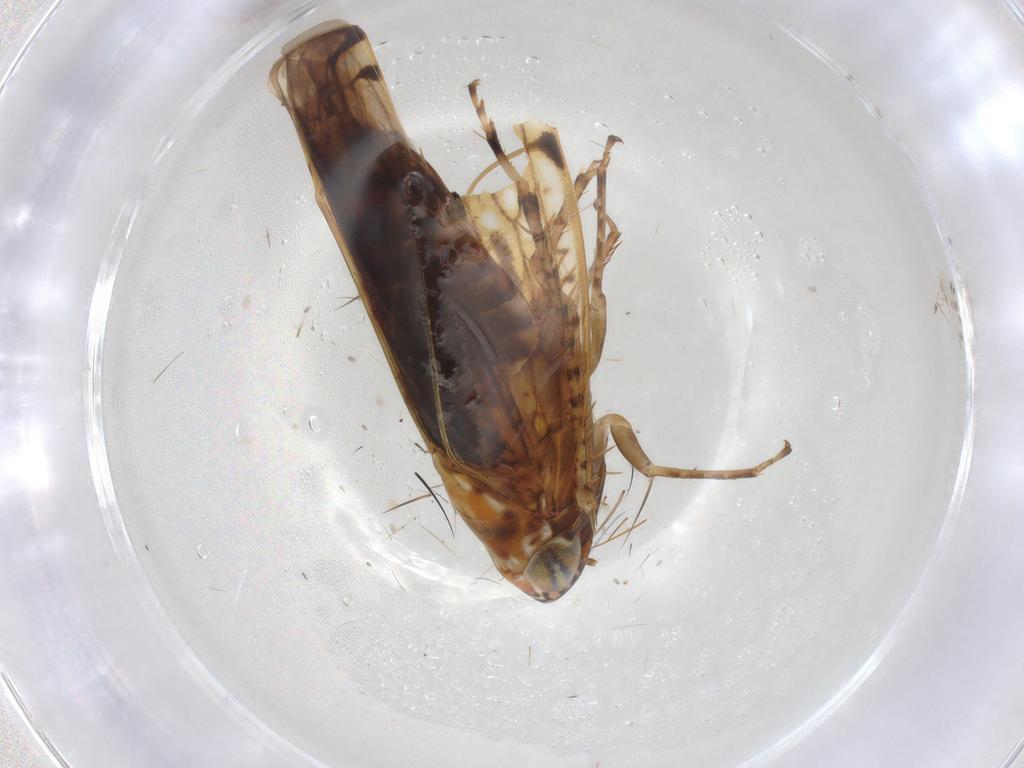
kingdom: Animalia
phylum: Arthropoda
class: Insecta
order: Hemiptera
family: Cicadellidae
